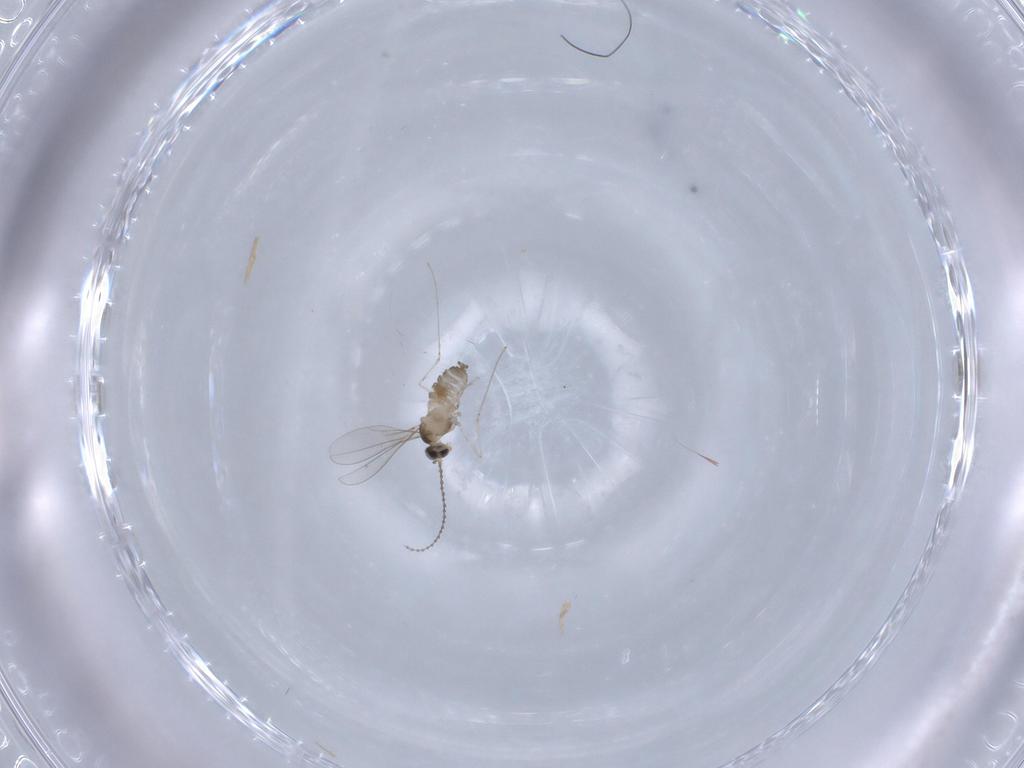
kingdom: Animalia
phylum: Arthropoda
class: Insecta
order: Diptera
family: Cecidomyiidae
